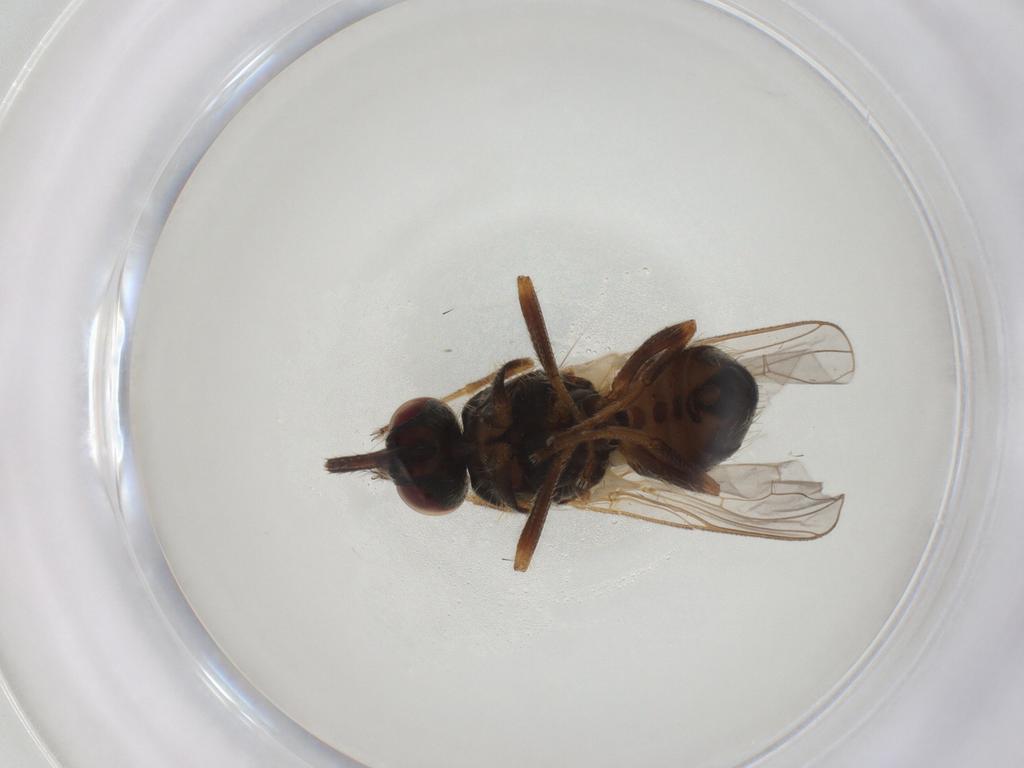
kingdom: Animalia
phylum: Arthropoda
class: Insecta
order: Diptera
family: Muscidae
